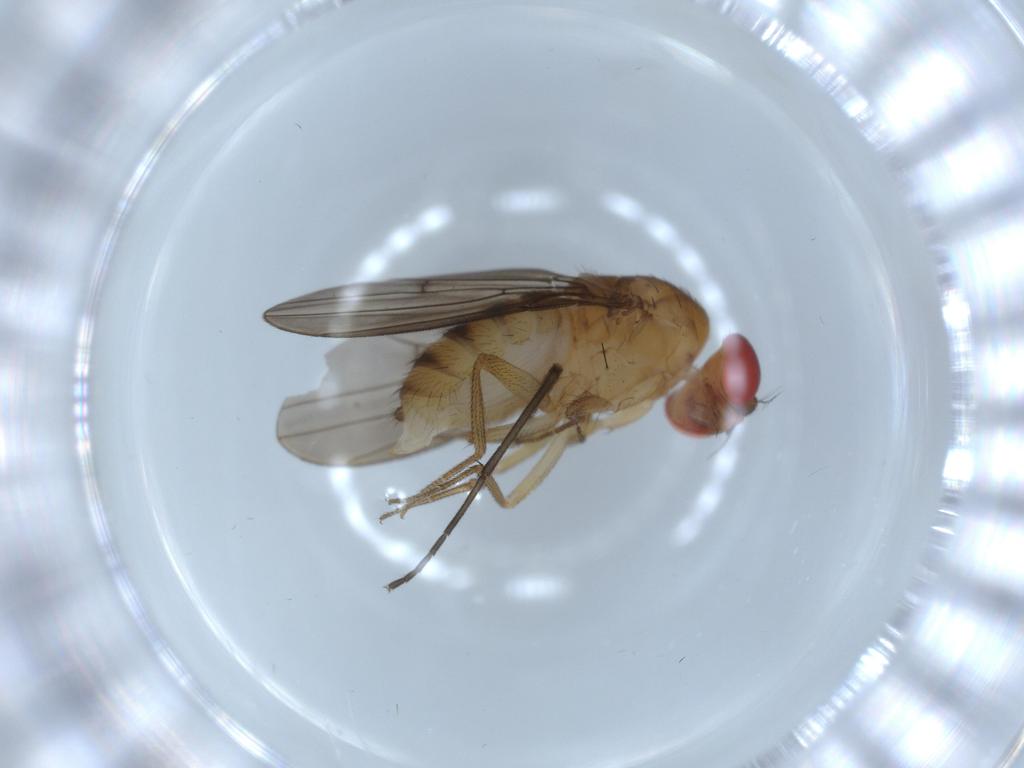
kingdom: Animalia
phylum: Arthropoda
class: Insecta
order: Diptera
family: Drosophilidae
